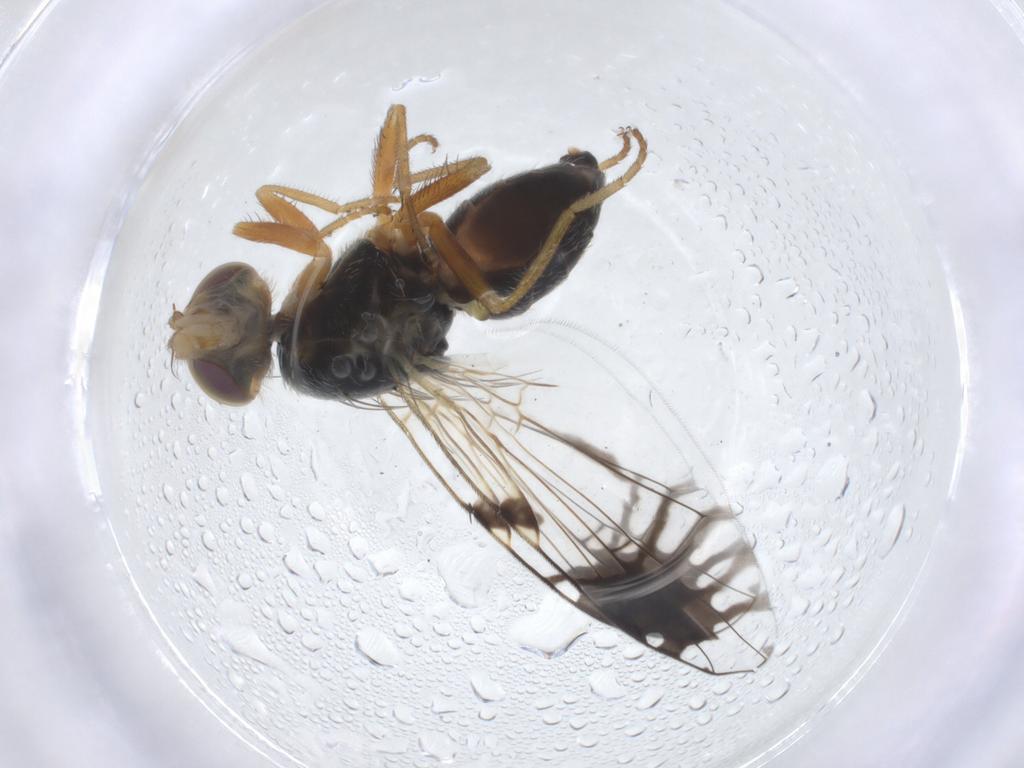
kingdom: Animalia
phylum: Arthropoda
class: Insecta
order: Diptera
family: Tephritidae
